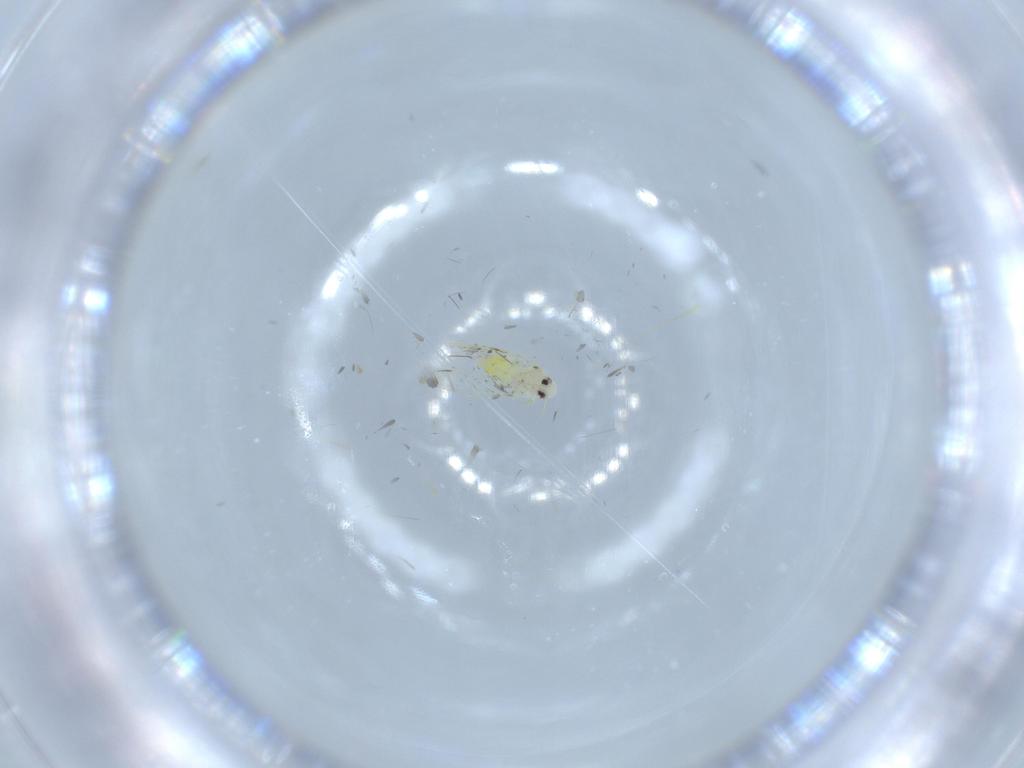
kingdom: Animalia
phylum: Arthropoda
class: Insecta
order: Hemiptera
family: Aleyrodidae
